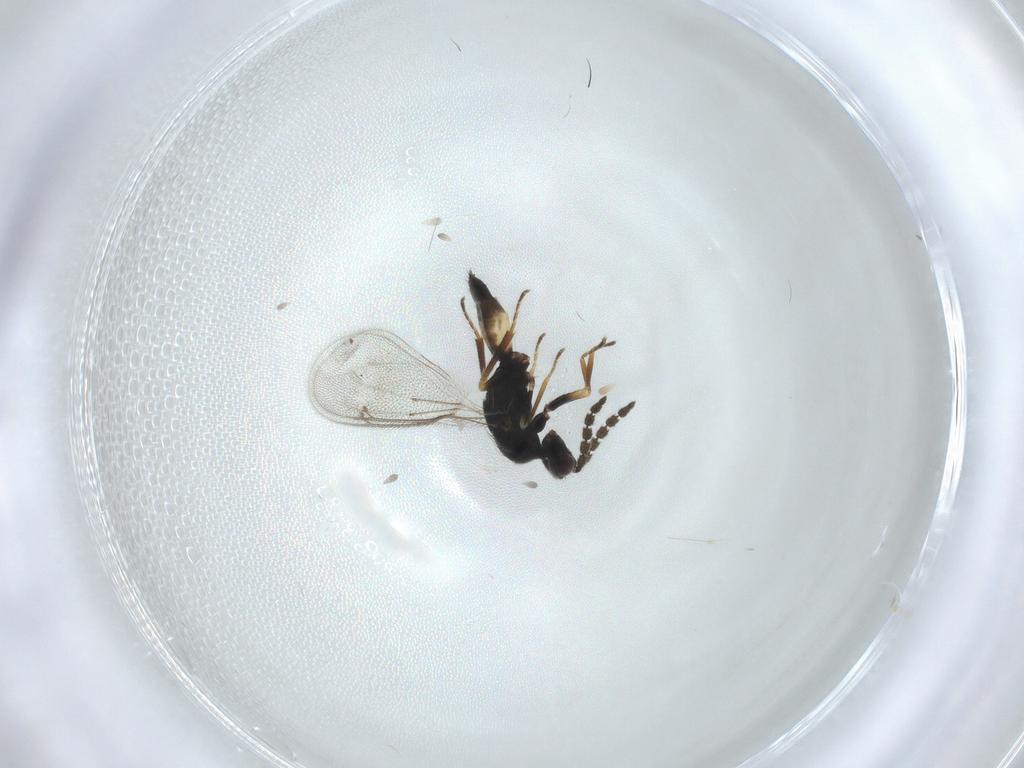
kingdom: Animalia
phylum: Arthropoda
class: Insecta
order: Hymenoptera
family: Eulophidae
